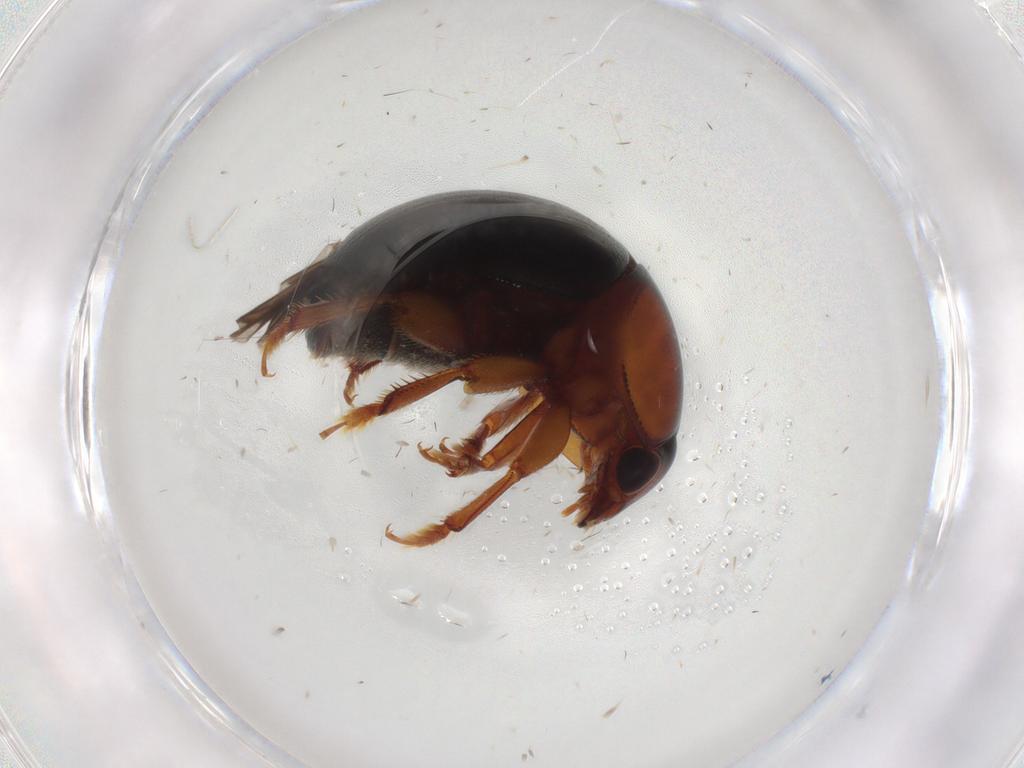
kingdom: Animalia
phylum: Arthropoda
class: Insecta
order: Coleoptera
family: Nitidulidae
